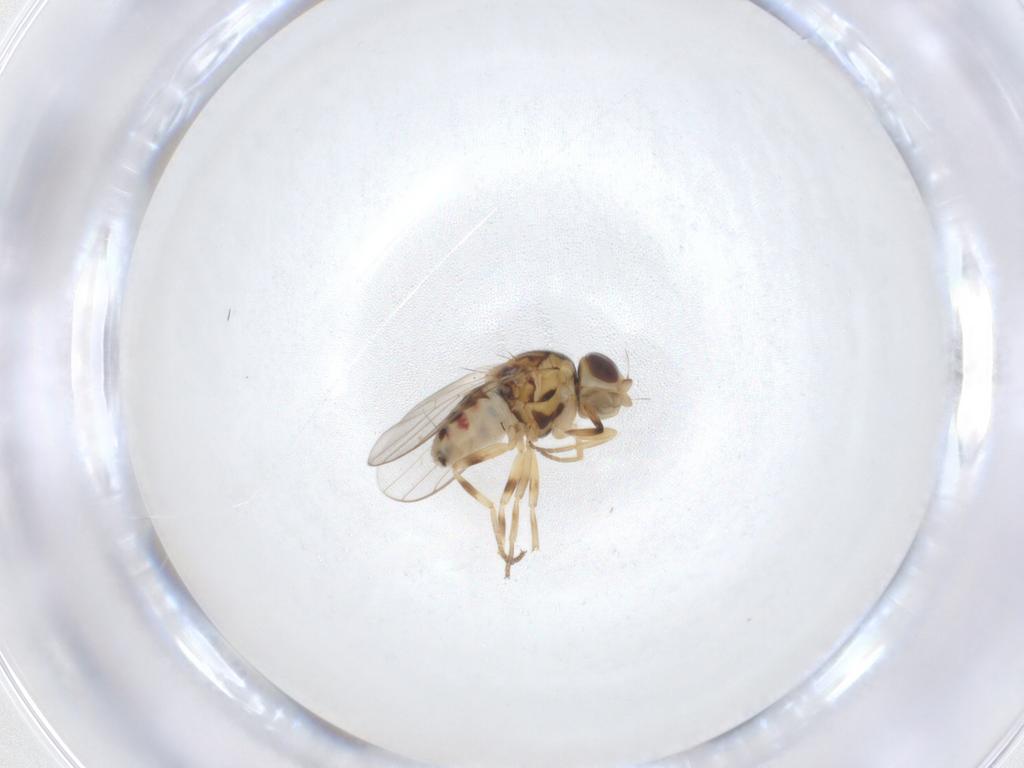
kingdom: Animalia
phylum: Arthropoda
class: Insecta
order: Diptera
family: Chloropidae
